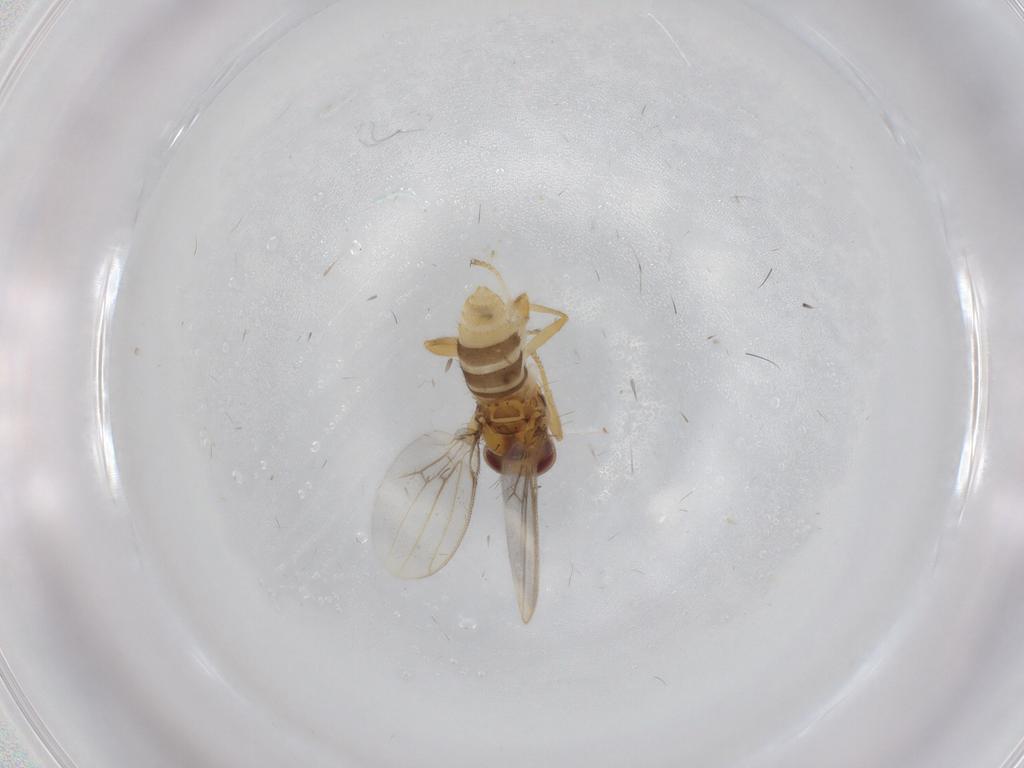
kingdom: Animalia
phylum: Arthropoda
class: Insecta
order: Diptera
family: Periscelididae
